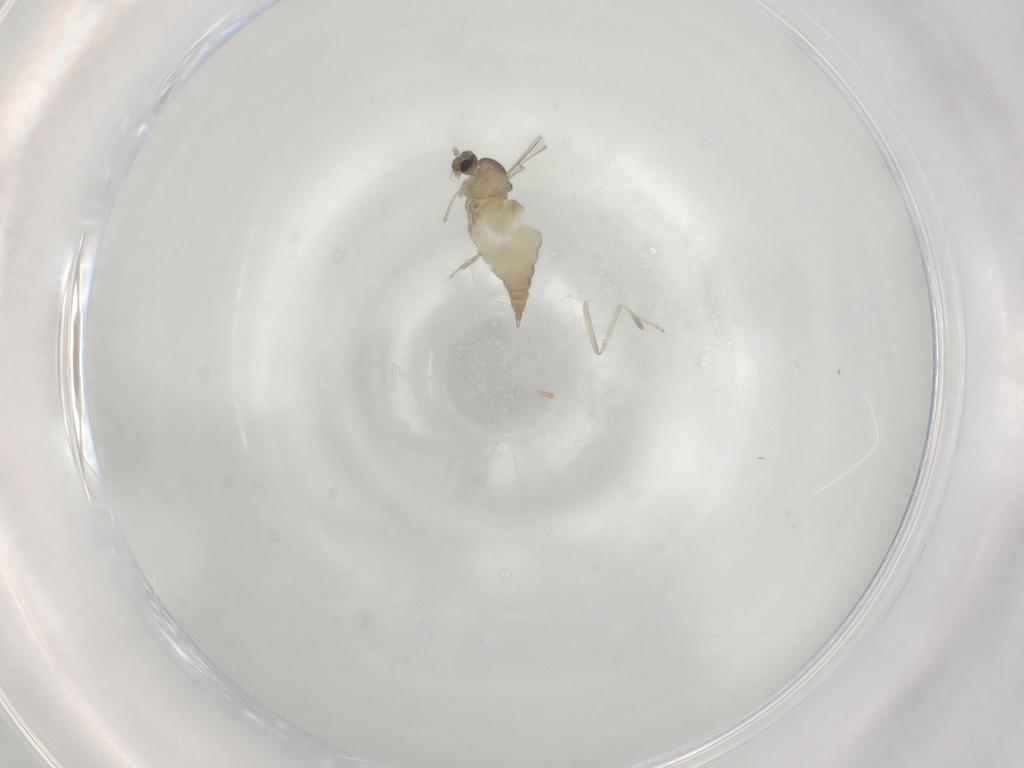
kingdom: Animalia
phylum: Arthropoda
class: Insecta
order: Diptera
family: Cecidomyiidae
